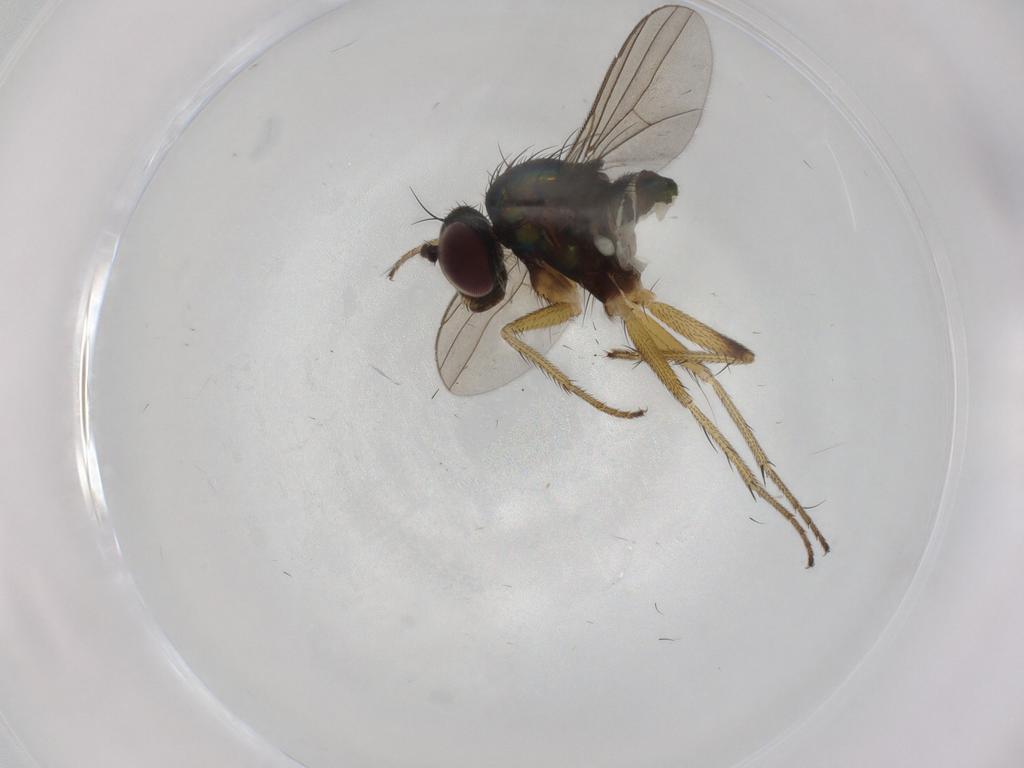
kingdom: Animalia
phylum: Arthropoda
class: Insecta
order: Diptera
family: Dolichopodidae
